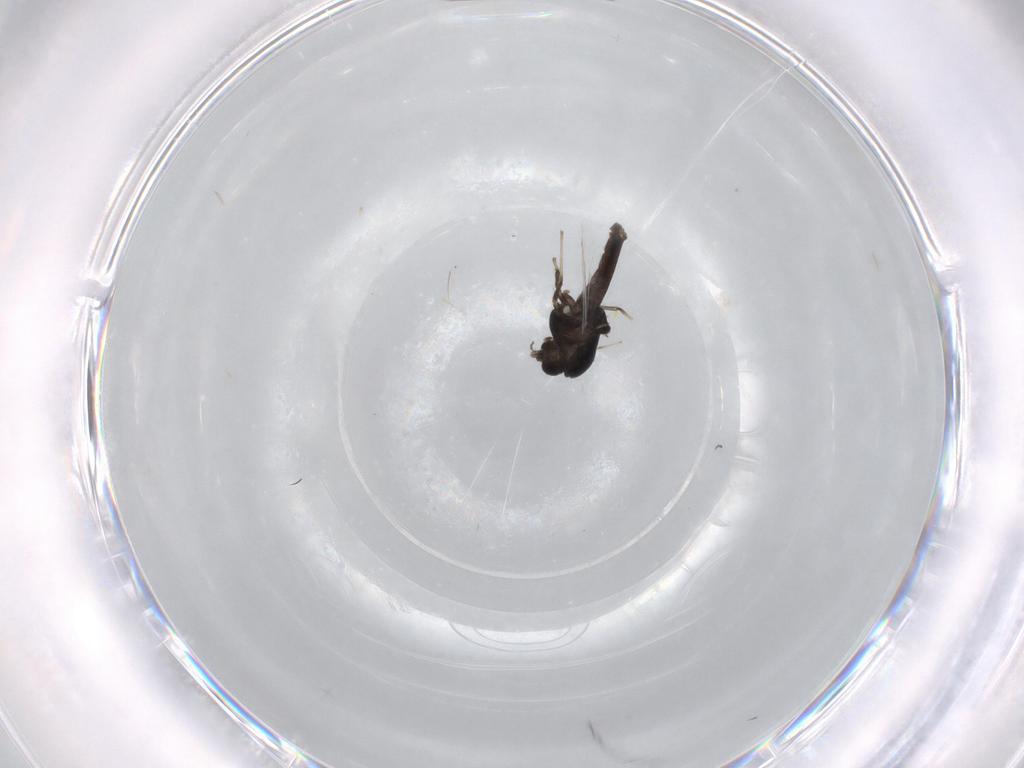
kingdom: Animalia
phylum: Arthropoda
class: Insecta
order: Diptera
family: Chironomidae
